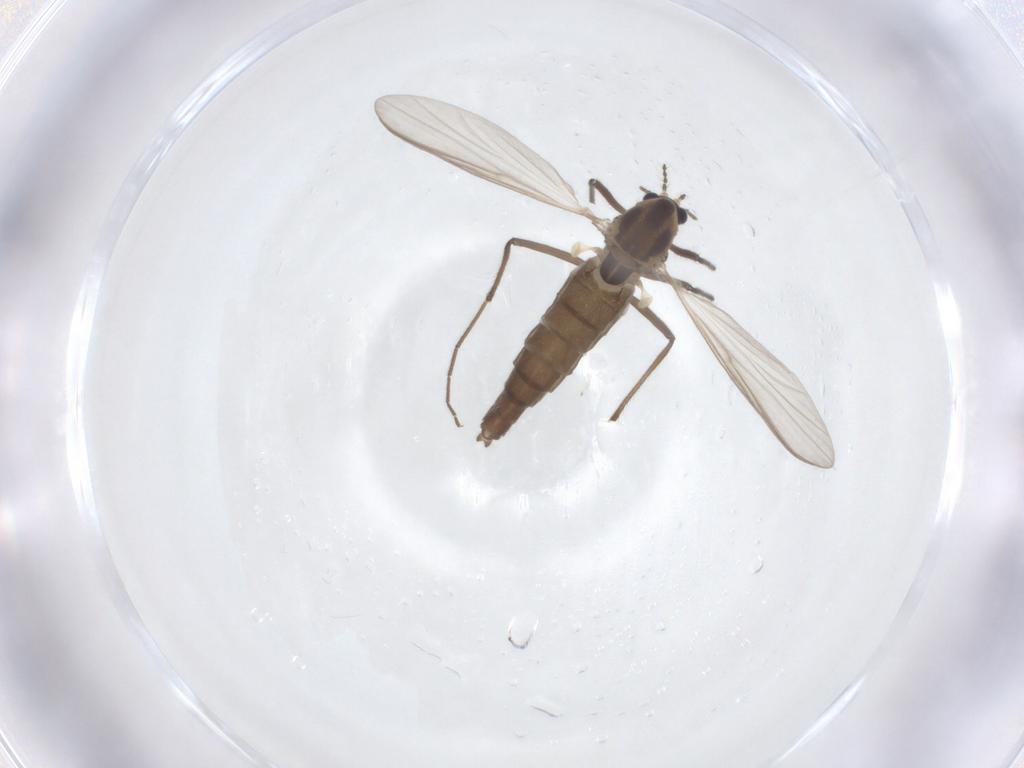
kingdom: Animalia
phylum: Arthropoda
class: Insecta
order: Diptera
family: Chironomidae
